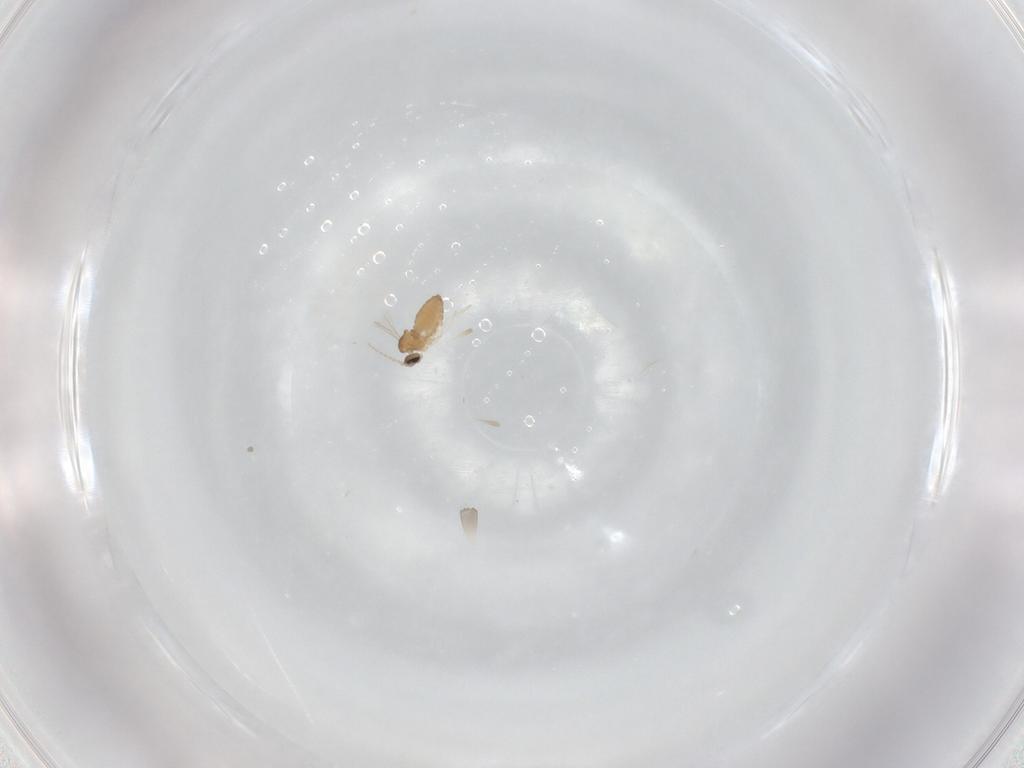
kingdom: Animalia
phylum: Arthropoda
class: Insecta
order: Diptera
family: Cecidomyiidae
